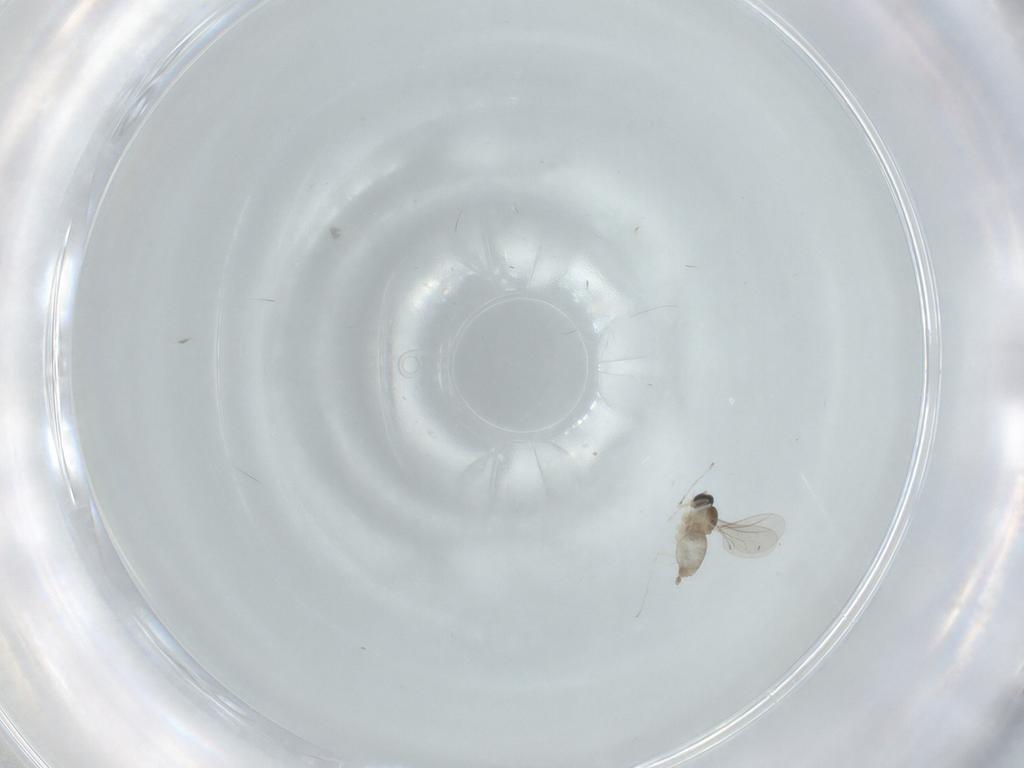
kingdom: Animalia
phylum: Arthropoda
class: Insecta
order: Diptera
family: Cecidomyiidae
